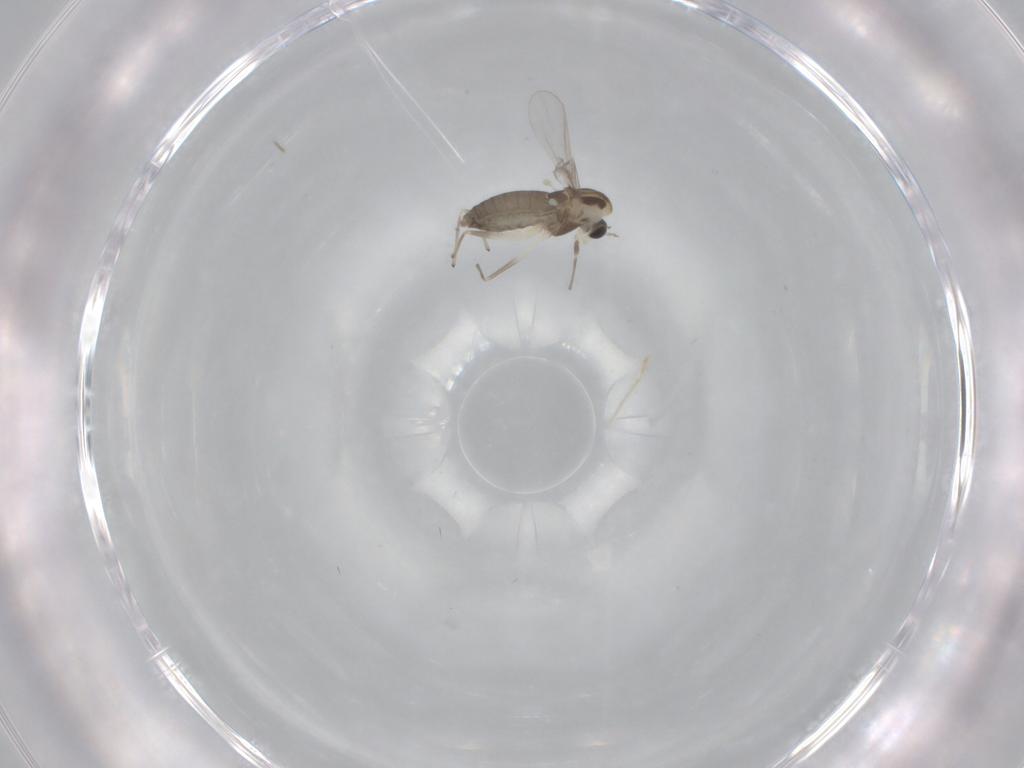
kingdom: Animalia
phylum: Arthropoda
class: Insecta
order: Diptera
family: Chironomidae
